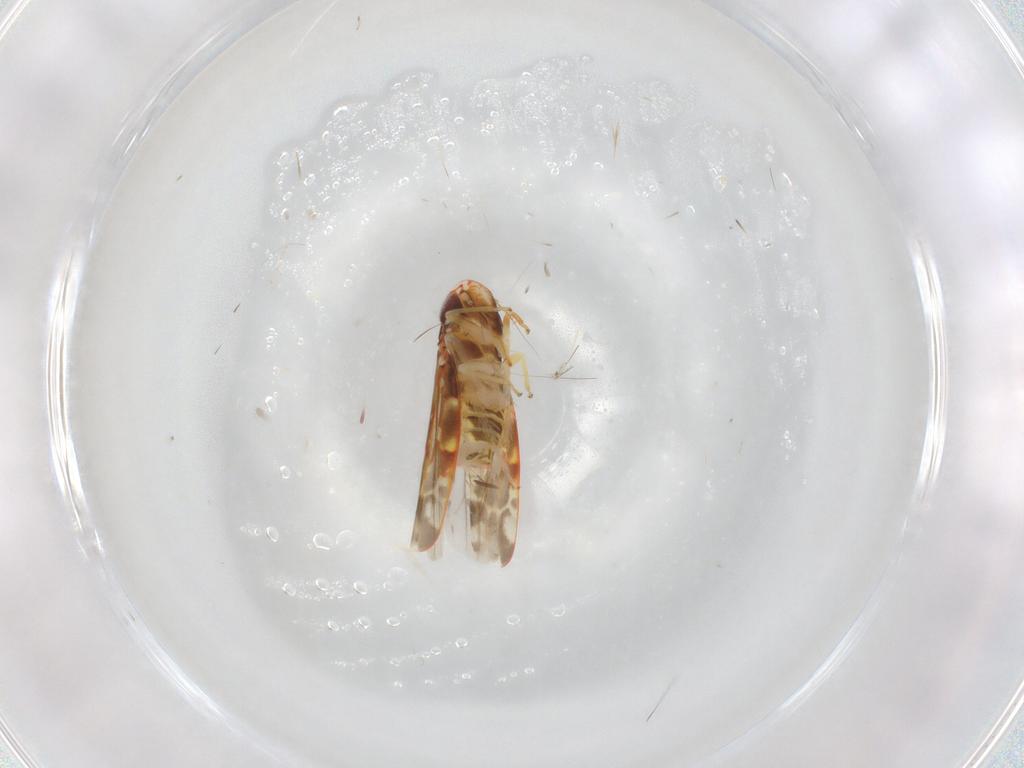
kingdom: Animalia
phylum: Arthropoda
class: Insecta
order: Hemiptera
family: Cicadellidae
